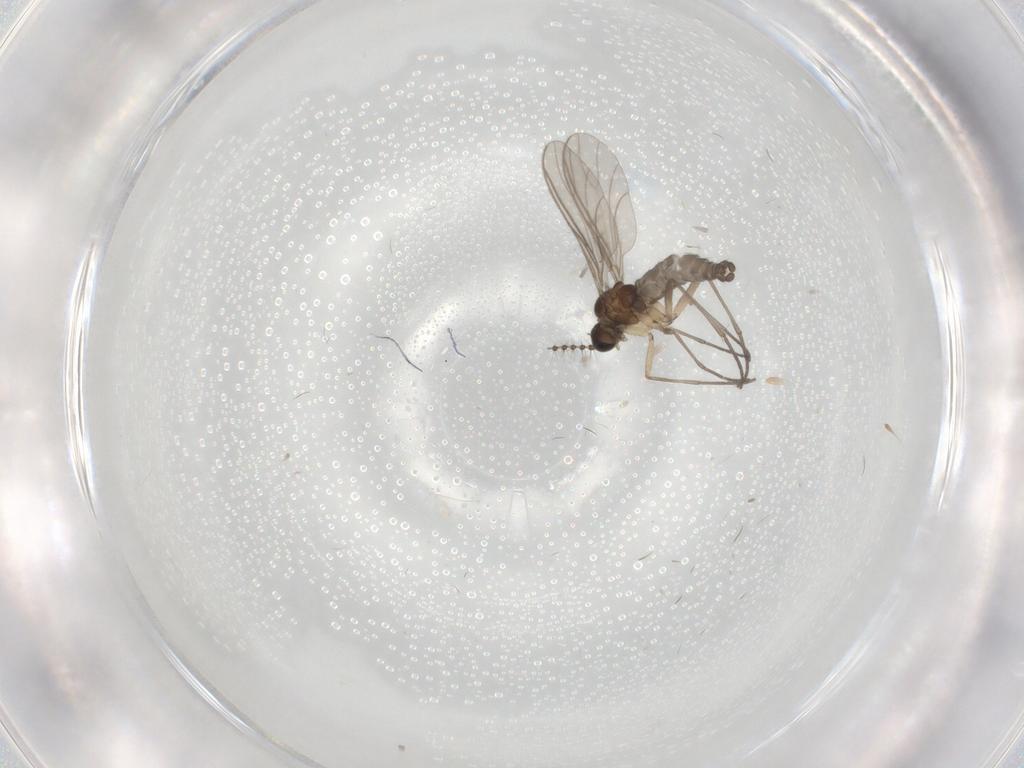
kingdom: Animalia
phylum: Arthropoda
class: Insecta
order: Diptera
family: Sciaridae
